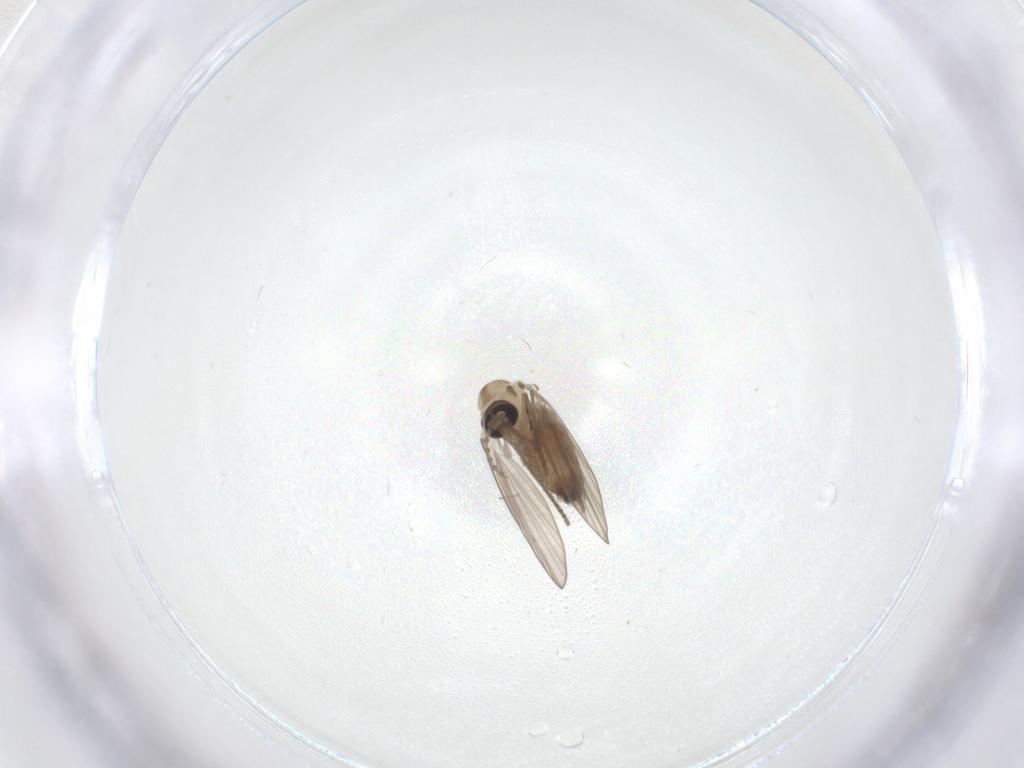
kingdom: Animalia
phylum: Arthropoda
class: Insecta
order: Diptera
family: Psychodidae
